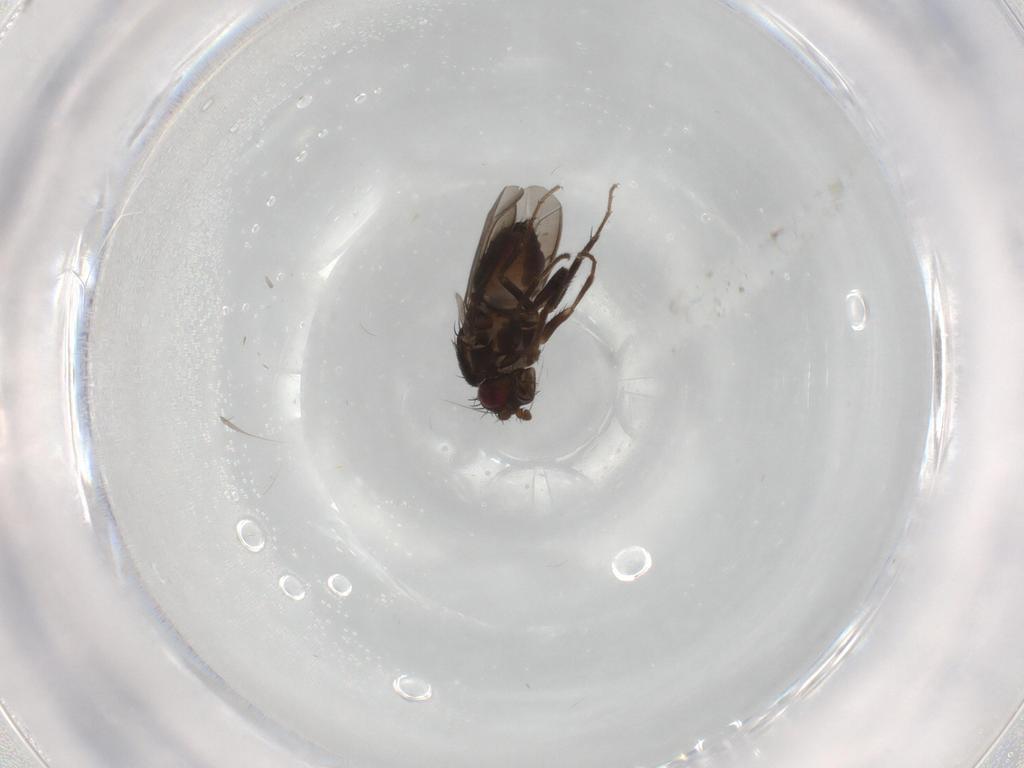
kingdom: Animalia
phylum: Arthropoda
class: Insecta
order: Diptera
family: Sphaeroceridae
